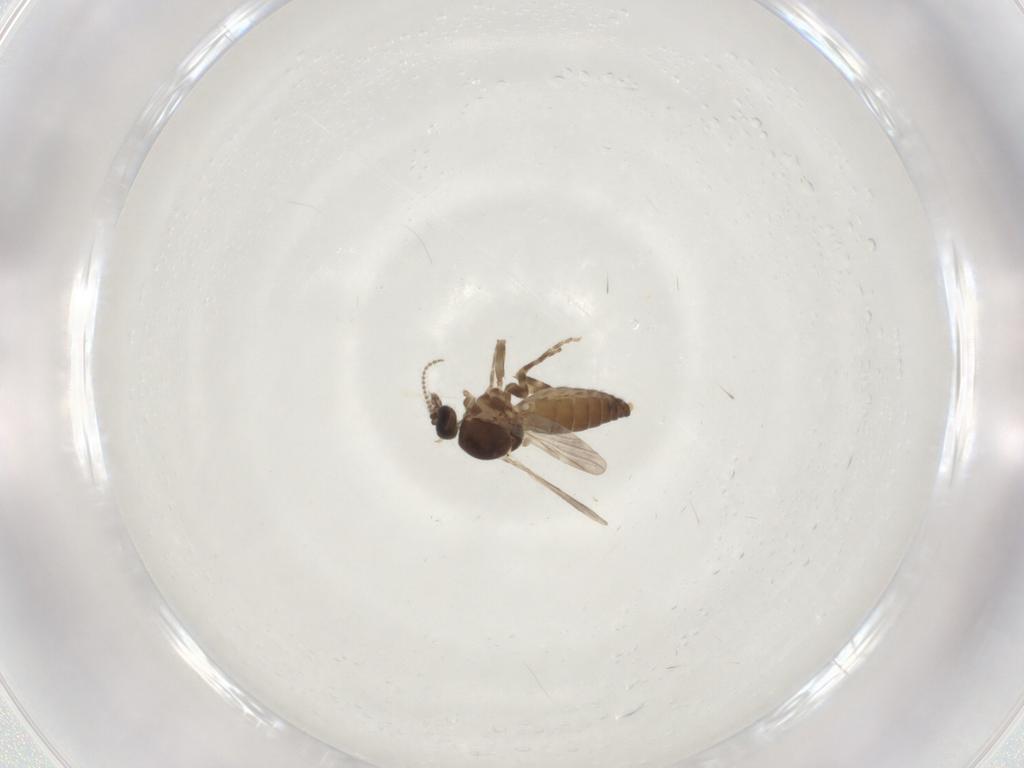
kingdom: Animalia
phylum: Arthropoda
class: Insecta
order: Diptera
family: Ceratopogonidae
